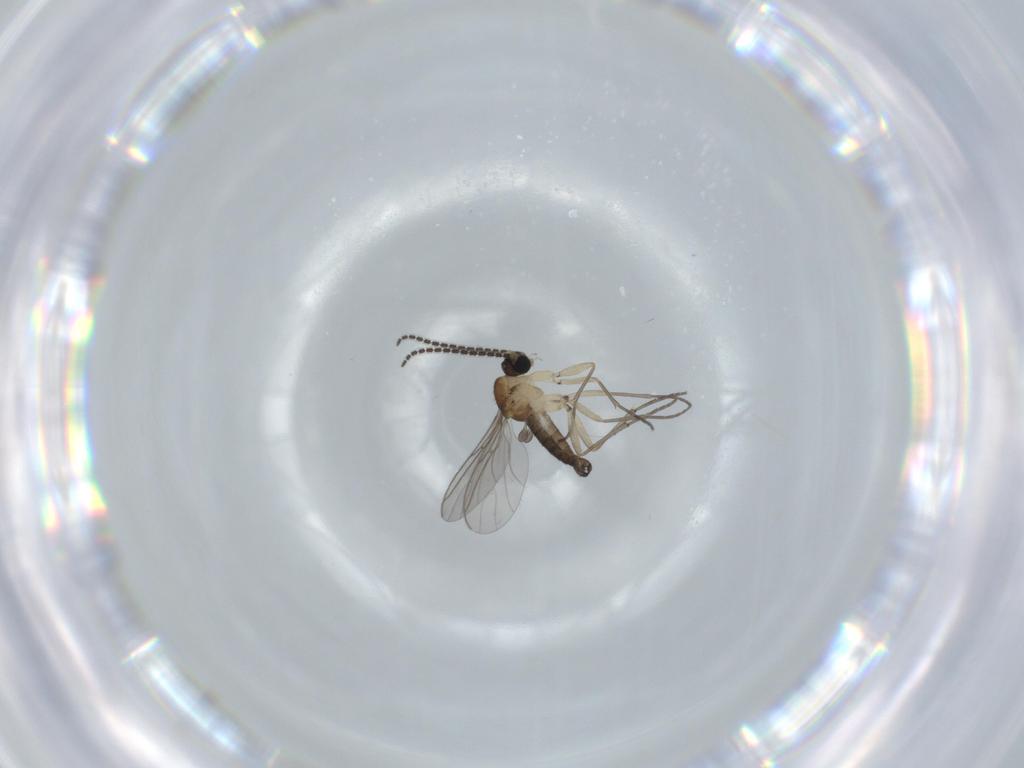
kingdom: Animalia
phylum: Arthropoda
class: Insecta
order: Diptera
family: Sciaridae
